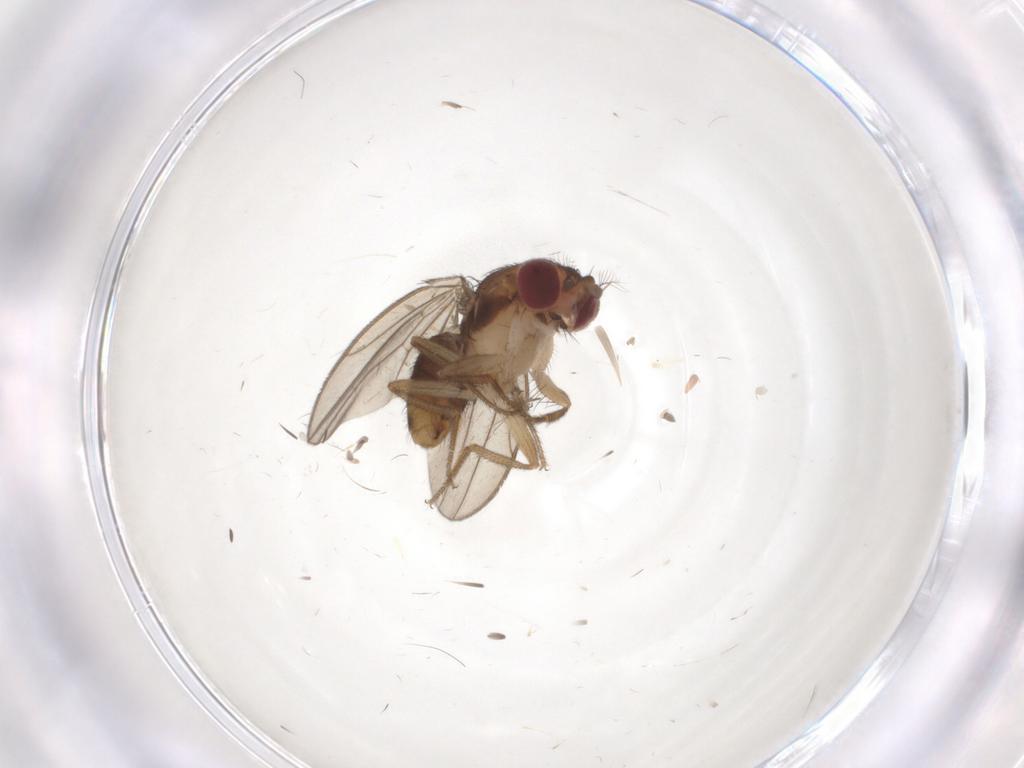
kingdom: Animalia
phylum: Arthropoda
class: Insecta
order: Diptera
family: Drosophilidae
